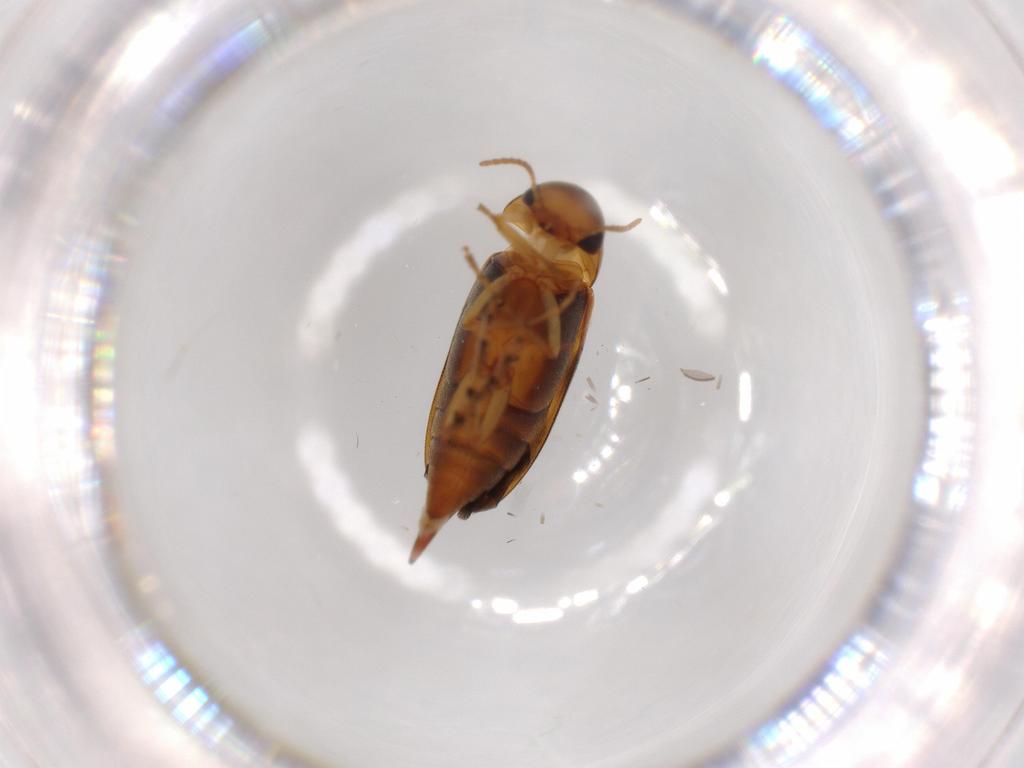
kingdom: Animalia
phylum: Arthropoda
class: Insecta
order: Coleoptera
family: Mordellidae
